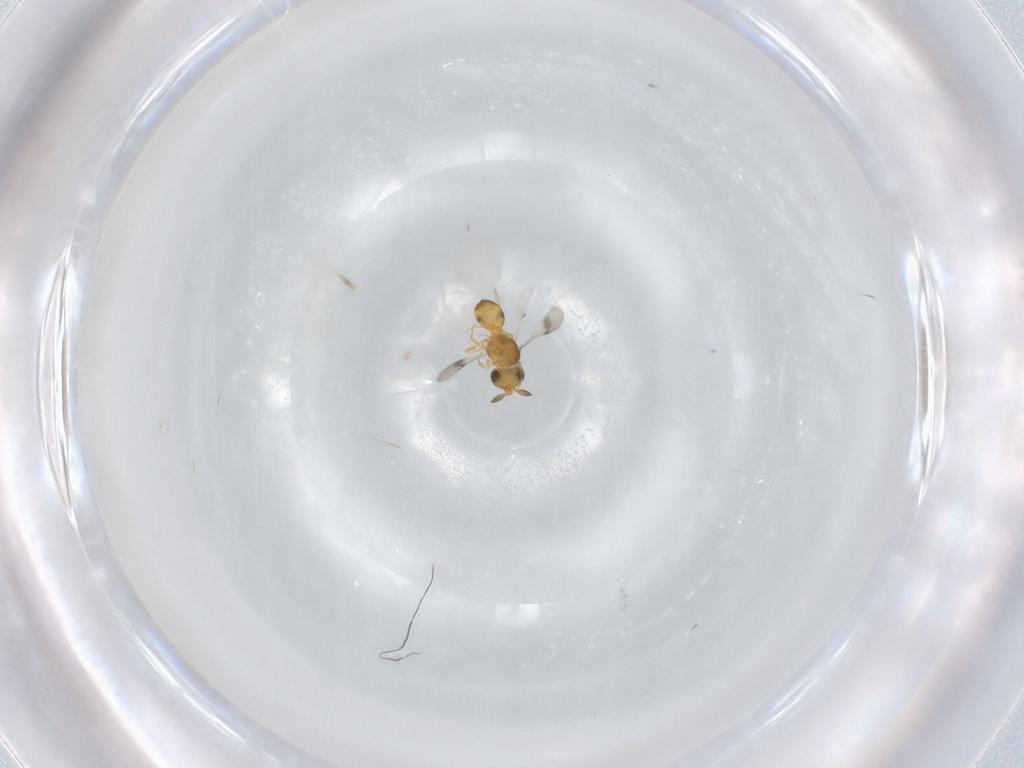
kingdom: Animalia
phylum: Arthropoda
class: Insecta
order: Hymenoptera
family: Scelionidae
